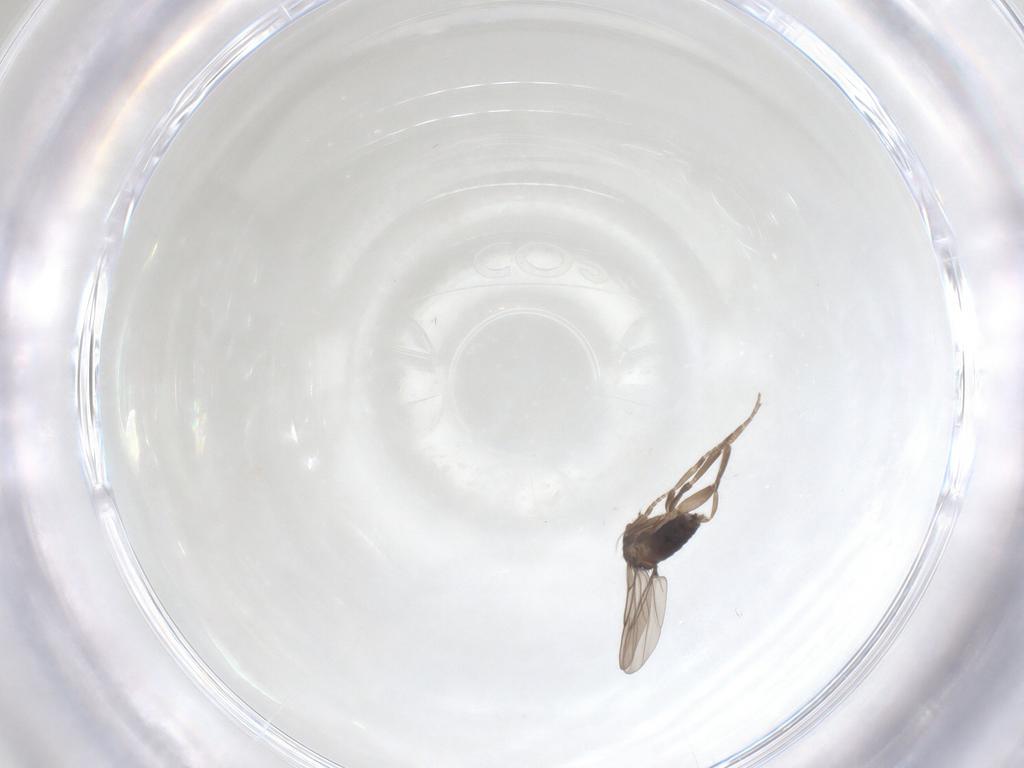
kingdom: Animalia
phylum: Arthropoda
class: Insecta
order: Diptera
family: Phoridae
